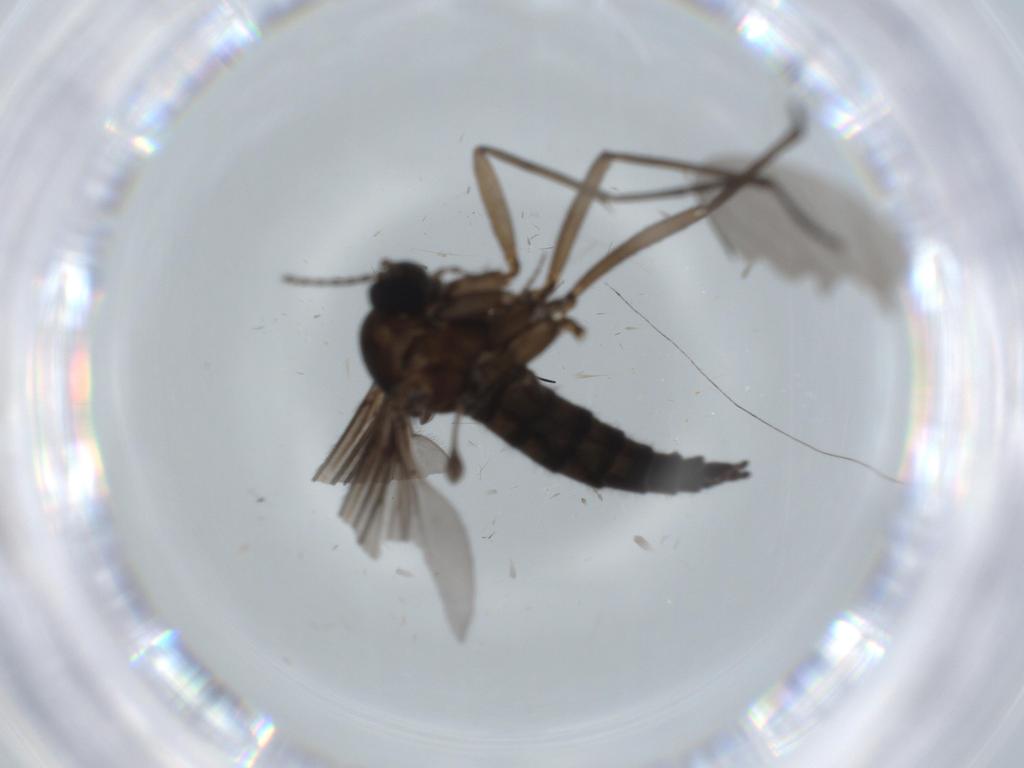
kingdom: Animalia
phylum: Arthropoda
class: Insecta
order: Diptera
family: Sciaridae
